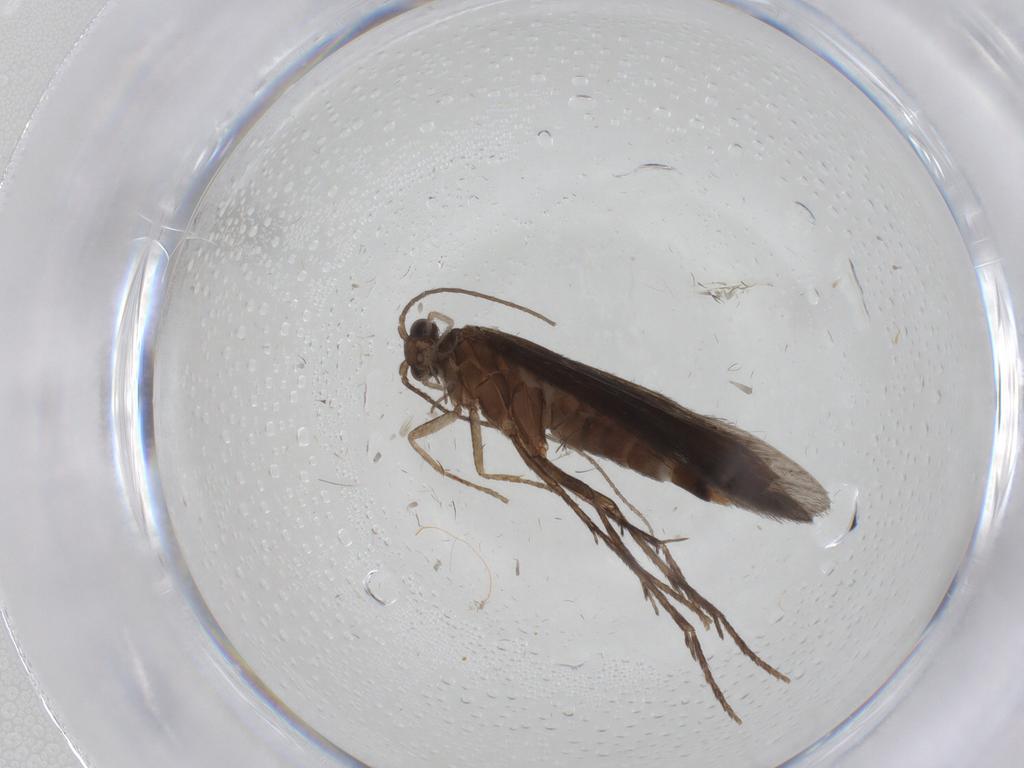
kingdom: Animalia
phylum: Arthropoda
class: Insecta
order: Trichoptera
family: Xiphocentronidae
